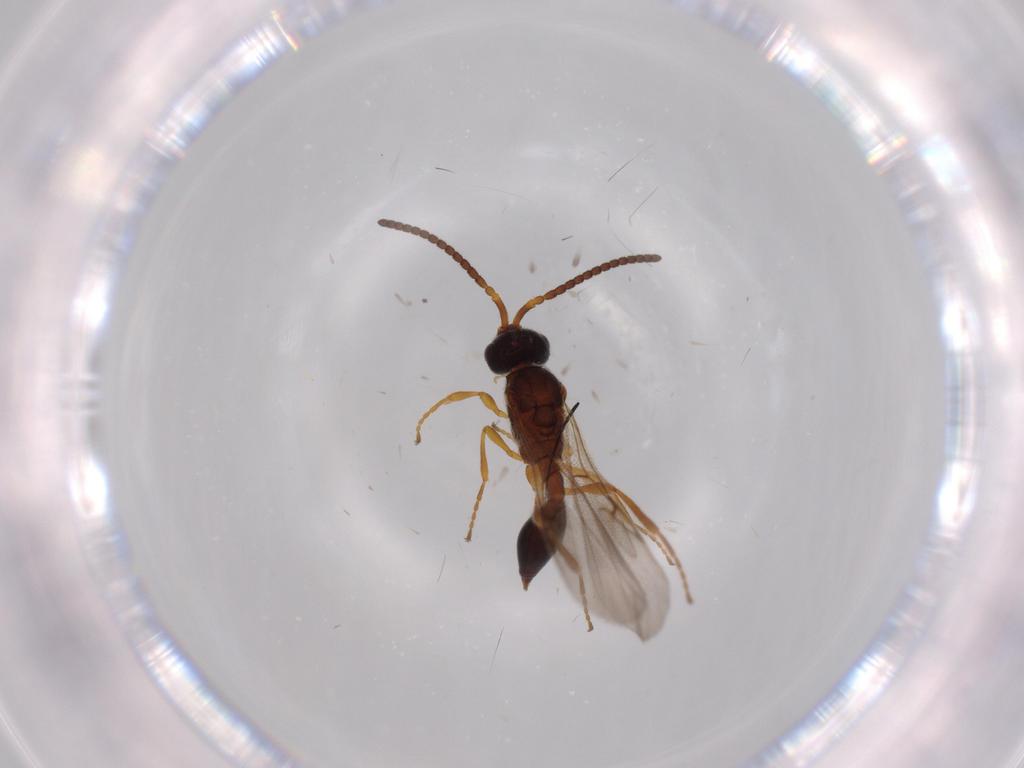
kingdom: Animalia
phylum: Arthropoda
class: Insecta
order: Hymenoptera
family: Braconidae
